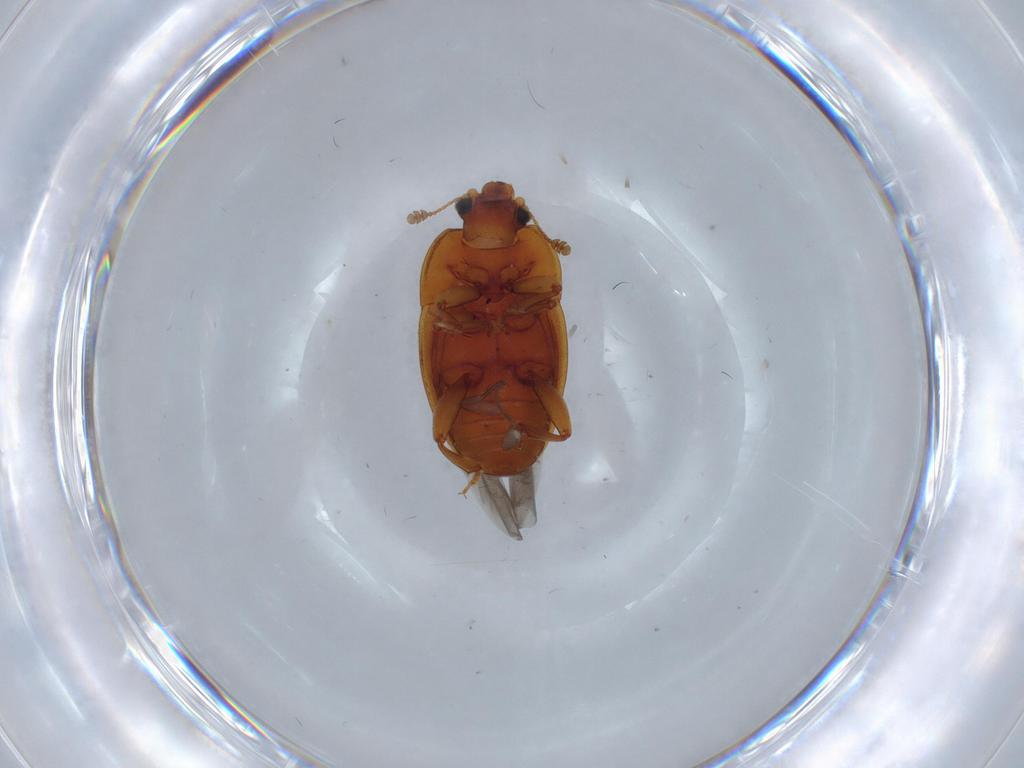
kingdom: Animalia
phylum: Arthropoda
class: Insecta
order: Coleoptera
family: Nitidulidae
